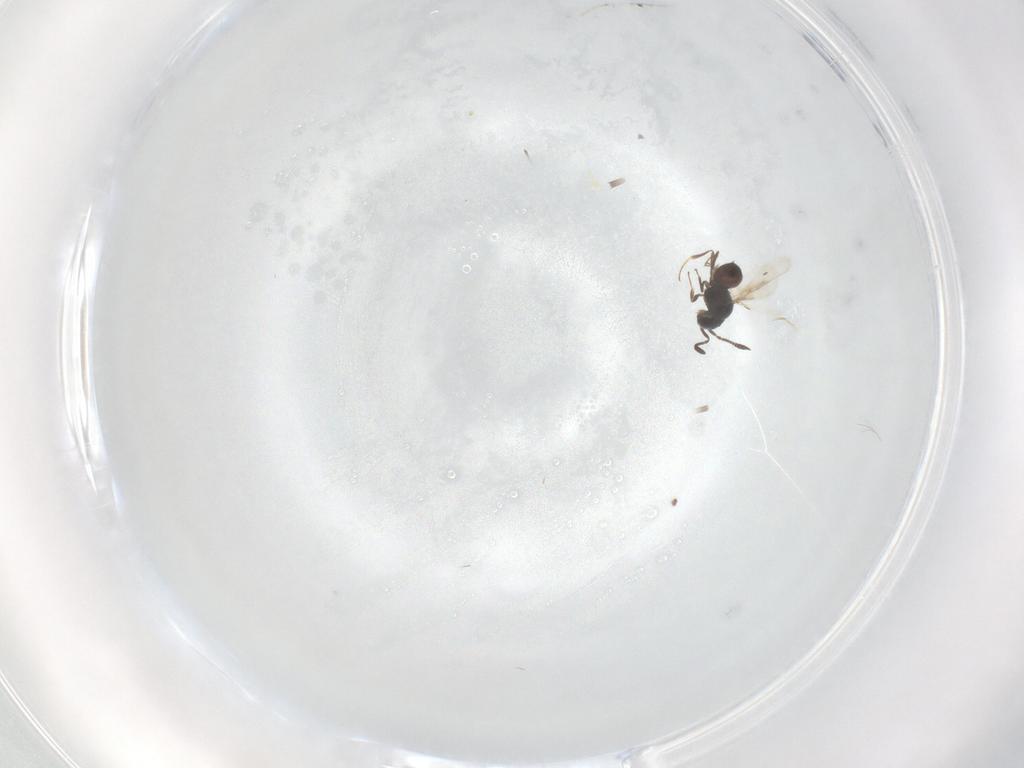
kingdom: Animalia
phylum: Arthropoda
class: Insecta
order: Hymenoptera
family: Scelionidae
